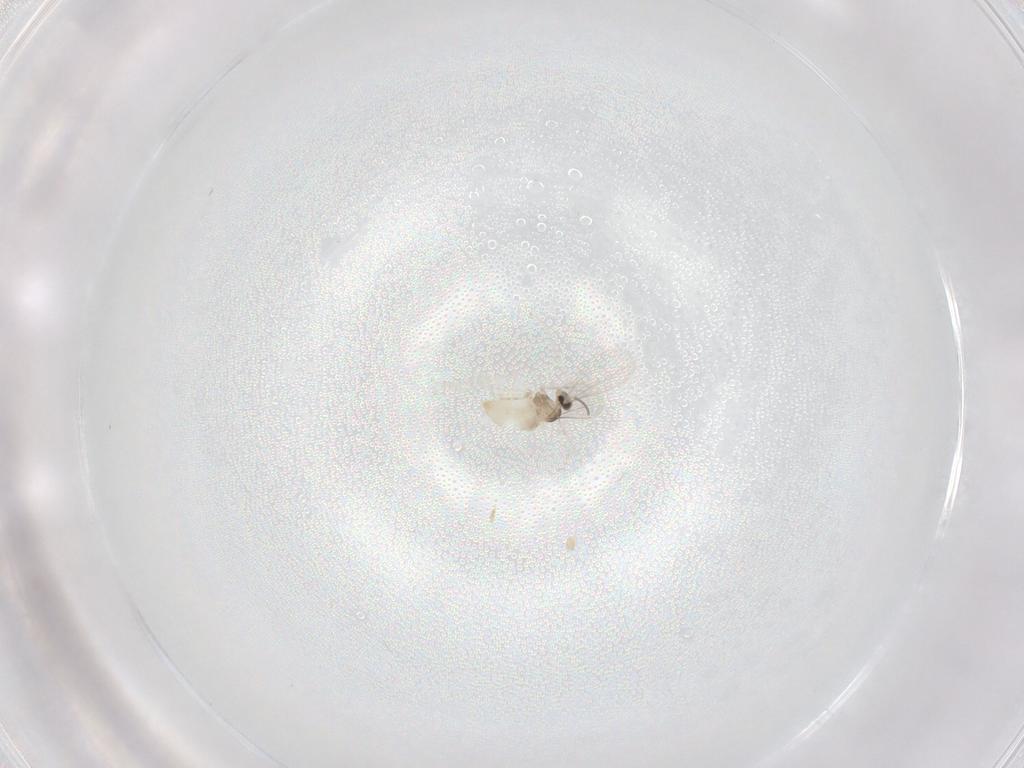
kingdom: Animalia
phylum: Arthropoda
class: Insecta
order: Diptera
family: Cecidomyiidae
